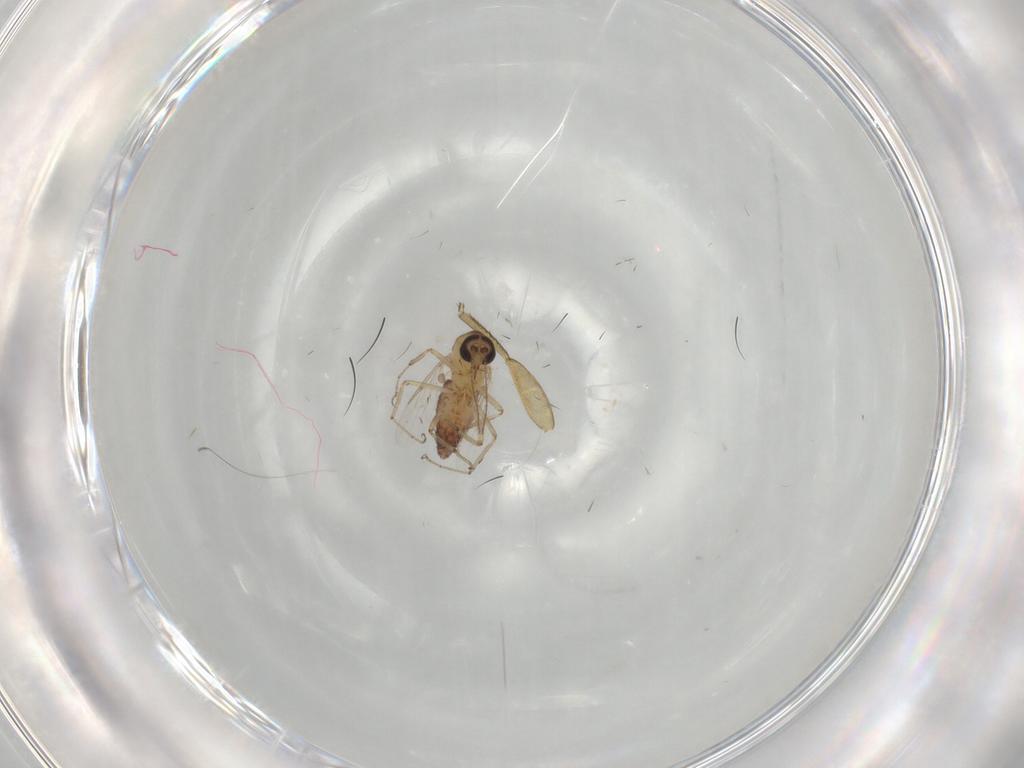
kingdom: Animalia
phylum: Arthropoda
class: Insecta
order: Diptera
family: Ceratopogonidae
